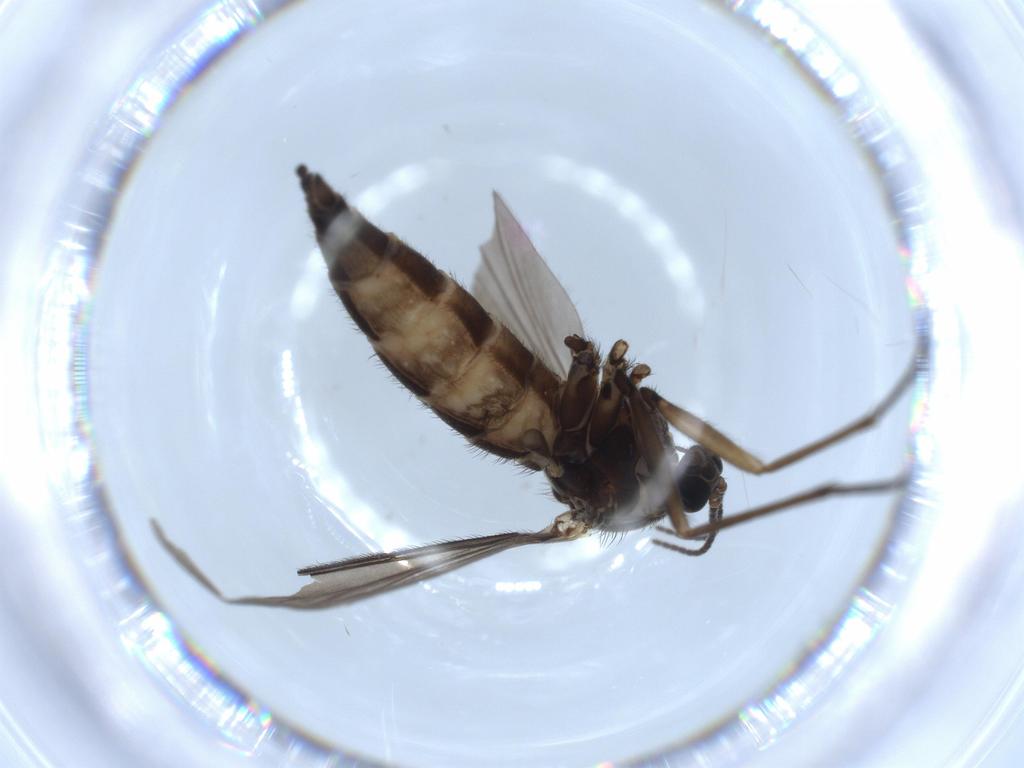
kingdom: Animalia
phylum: Arthropoda
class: Insecta
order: Diptera
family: Sciaridae
